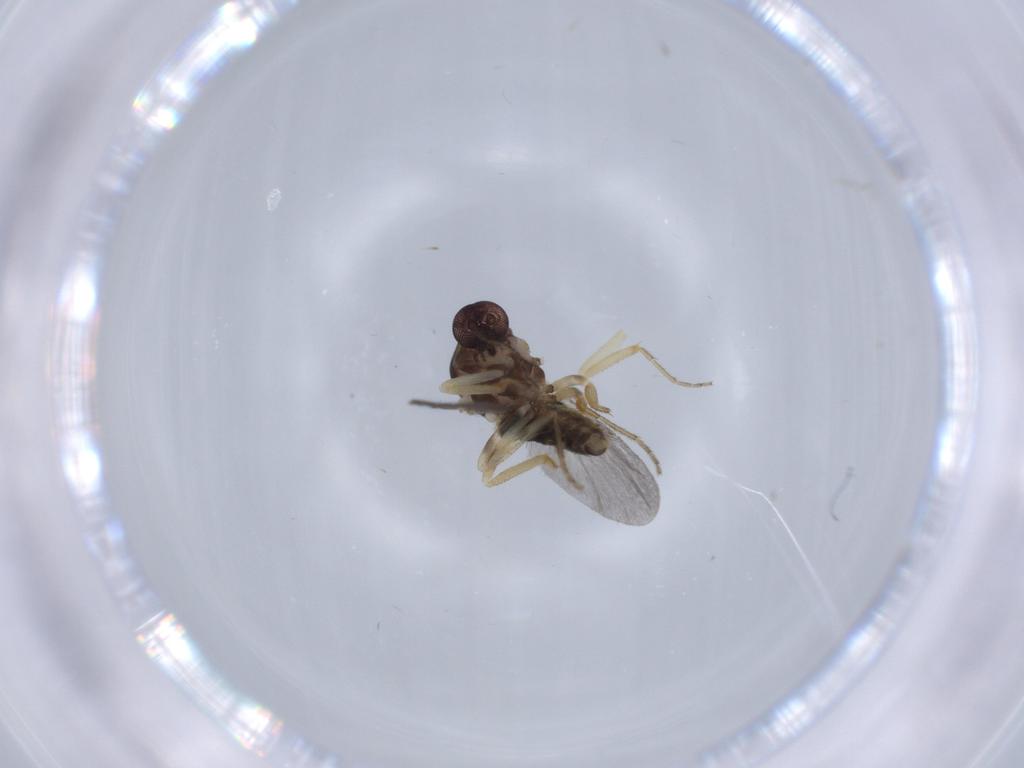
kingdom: Animalia
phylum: Arthropoda
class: Insecta
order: Diptera
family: Ceratopogonidae
